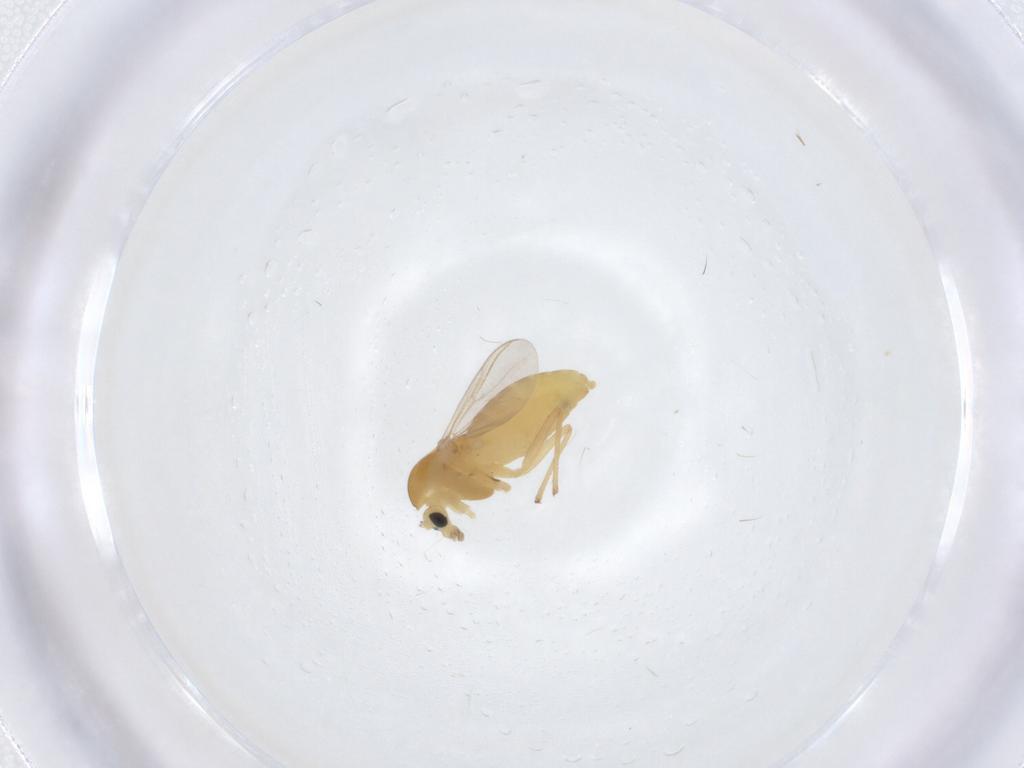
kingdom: Animalia
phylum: Arthropoda
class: Insecta
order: Diptera
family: Chironomidae
